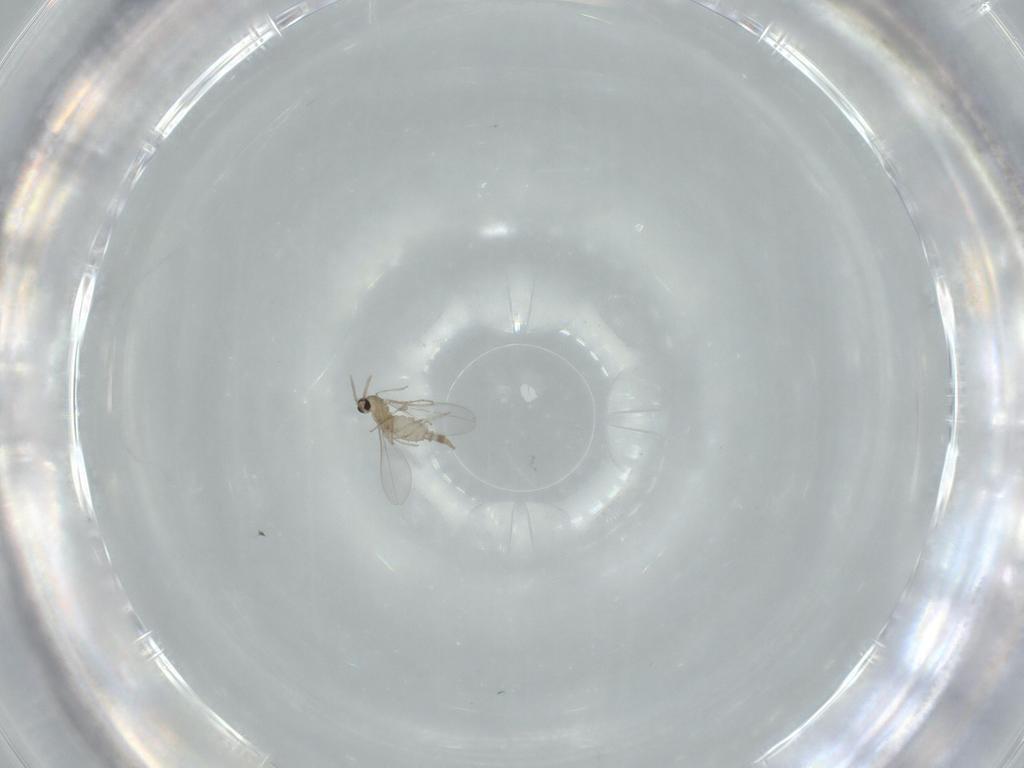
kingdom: Animalia
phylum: Arthropoda
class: Insecta
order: Diptera
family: Cecidomyiidae
